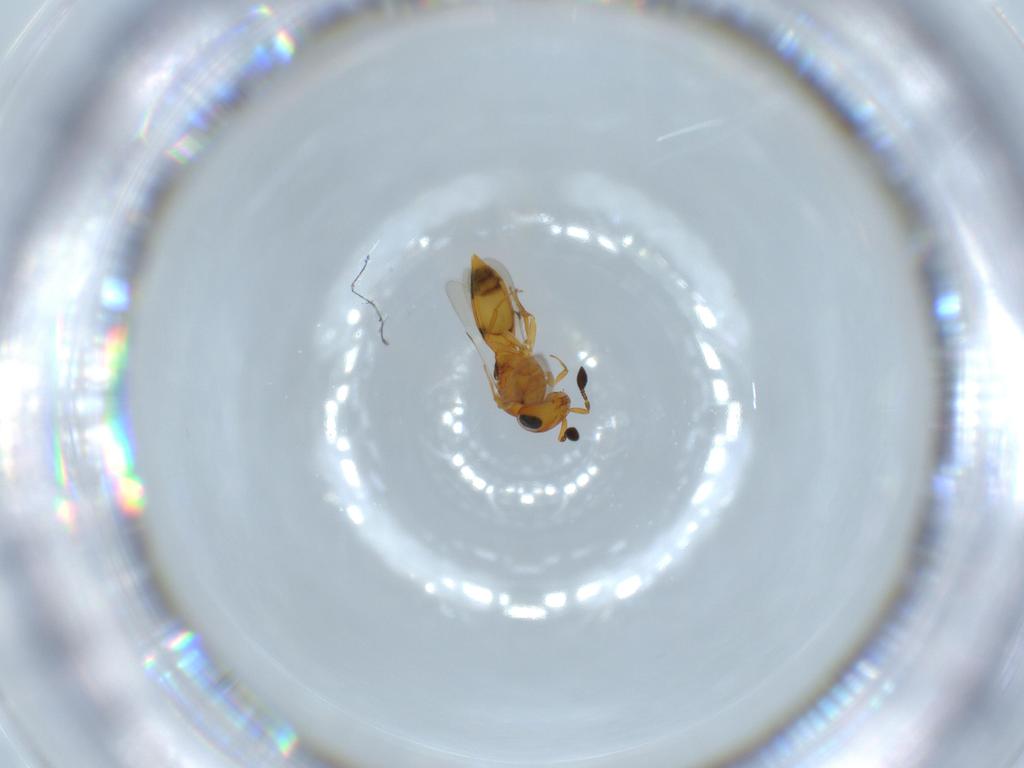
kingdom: Animalia
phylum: Arthropoda
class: Insecta
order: Hymenoptera
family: Scelionidae
